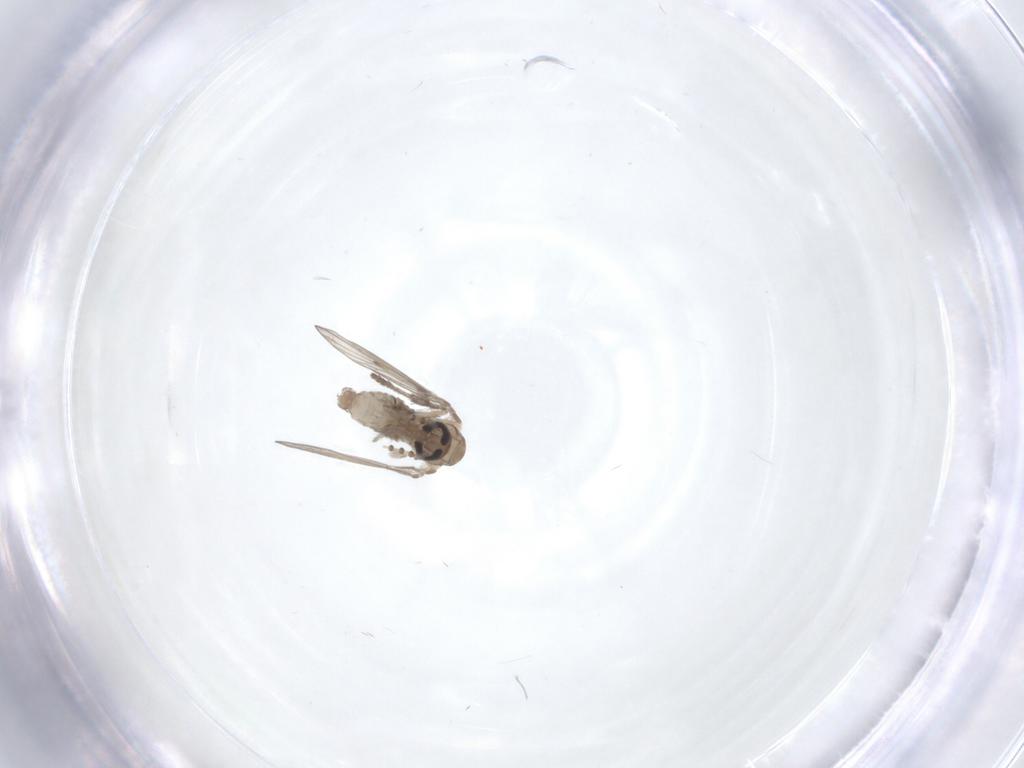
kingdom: Animalia
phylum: Arthropoda
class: Insecta
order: Diptera
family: Psychodidae
